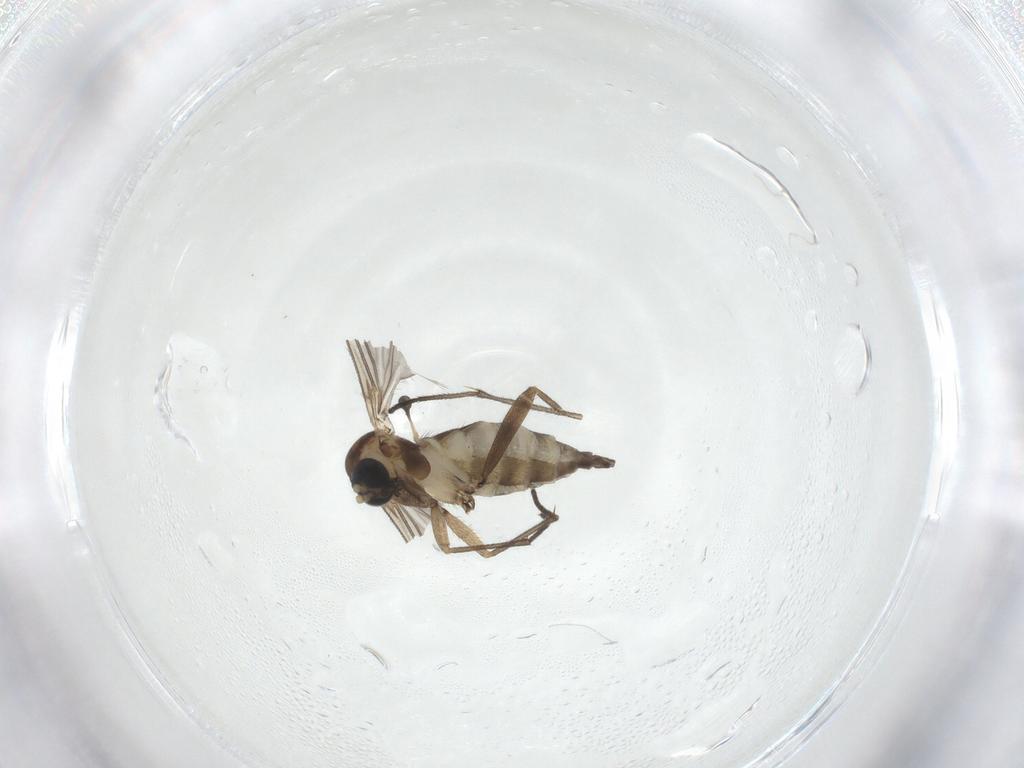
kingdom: Animalia
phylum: Arthropoda
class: Insecta
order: Diptera
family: Sciaridae
